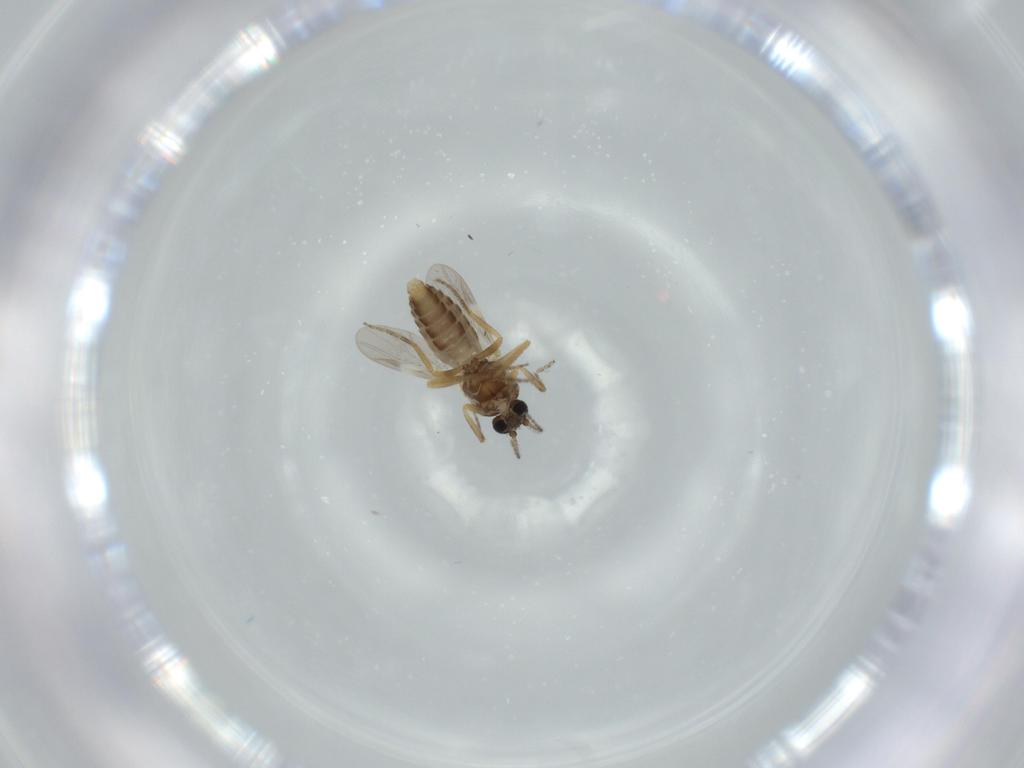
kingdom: Animalia
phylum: Arthropoda
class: Insecta
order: Diptera
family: Ceratopogonidae
